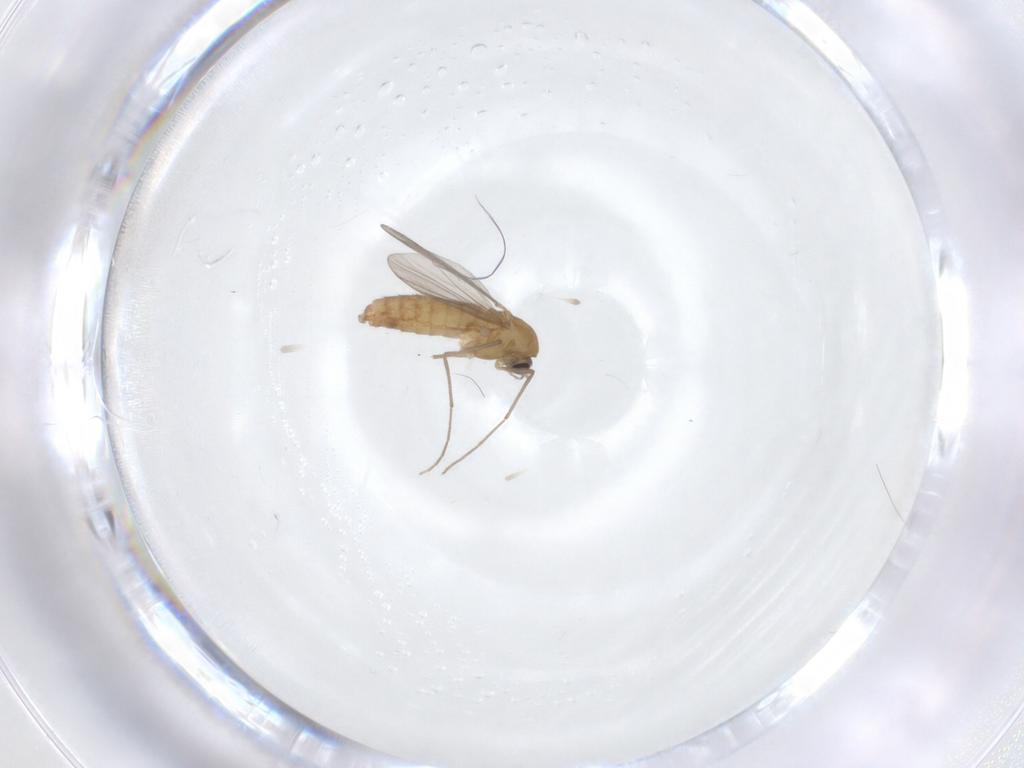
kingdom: Animalia
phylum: Arthropoda
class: Insecta
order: Diptera
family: Chironomidae
